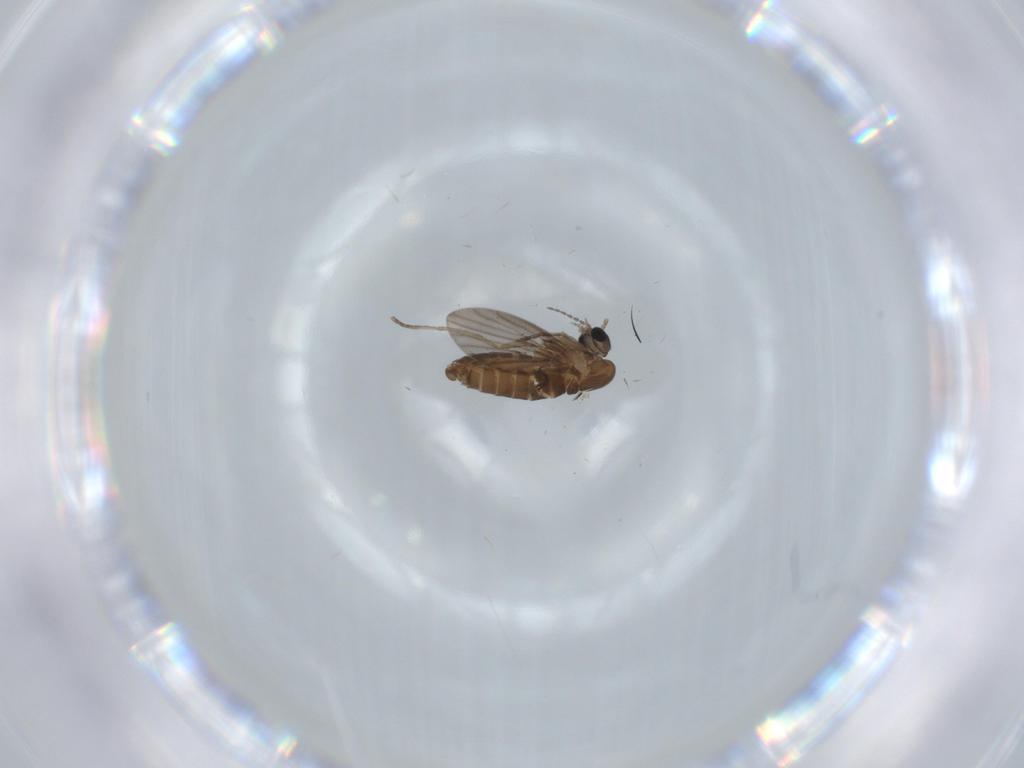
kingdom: Animalia
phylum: Arthropoda
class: Insecta
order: Diptera
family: Psychodidae
